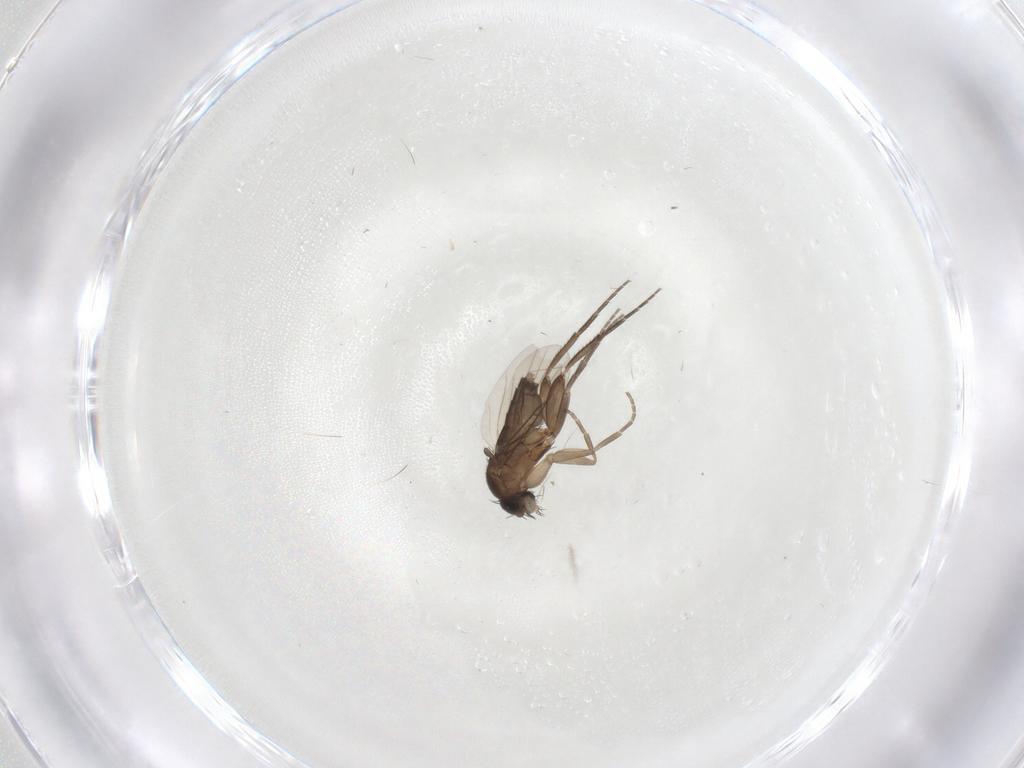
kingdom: Animalia
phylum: Arthropoda
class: Insecta
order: Diptera
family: Phoridae
